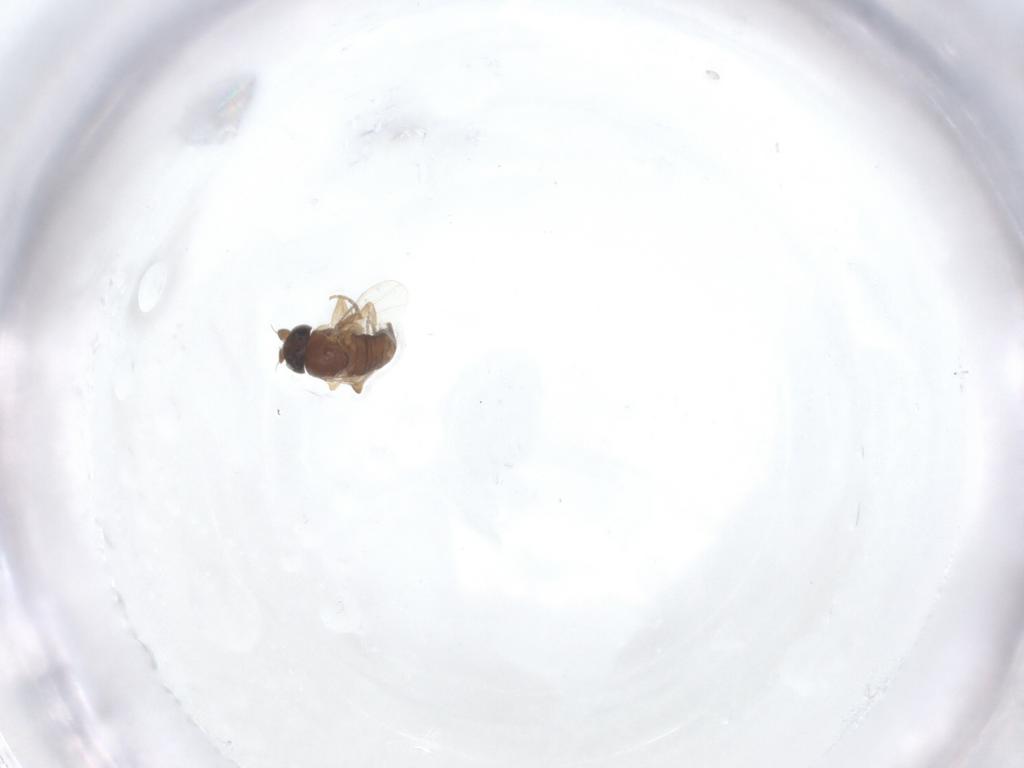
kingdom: Animalia
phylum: Arthropoda
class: Insecta
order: Diptera
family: Phoridae
